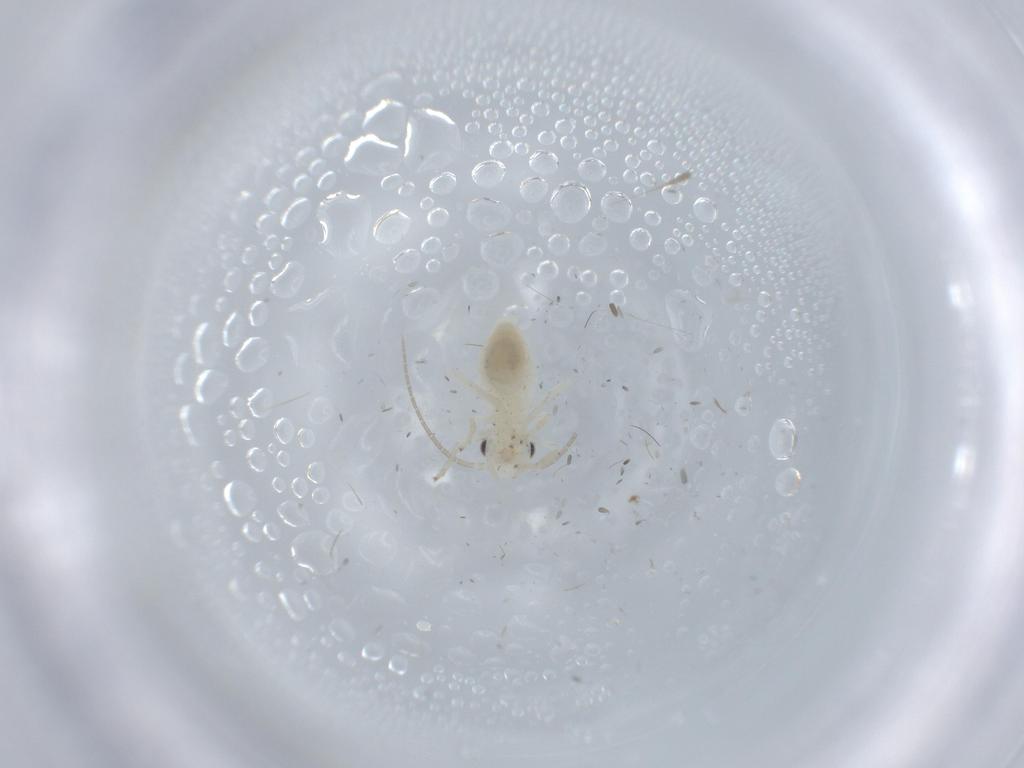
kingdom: Animalia
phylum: Arthropoda
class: Insecta
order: Psocodea
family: Caeciliusidae
